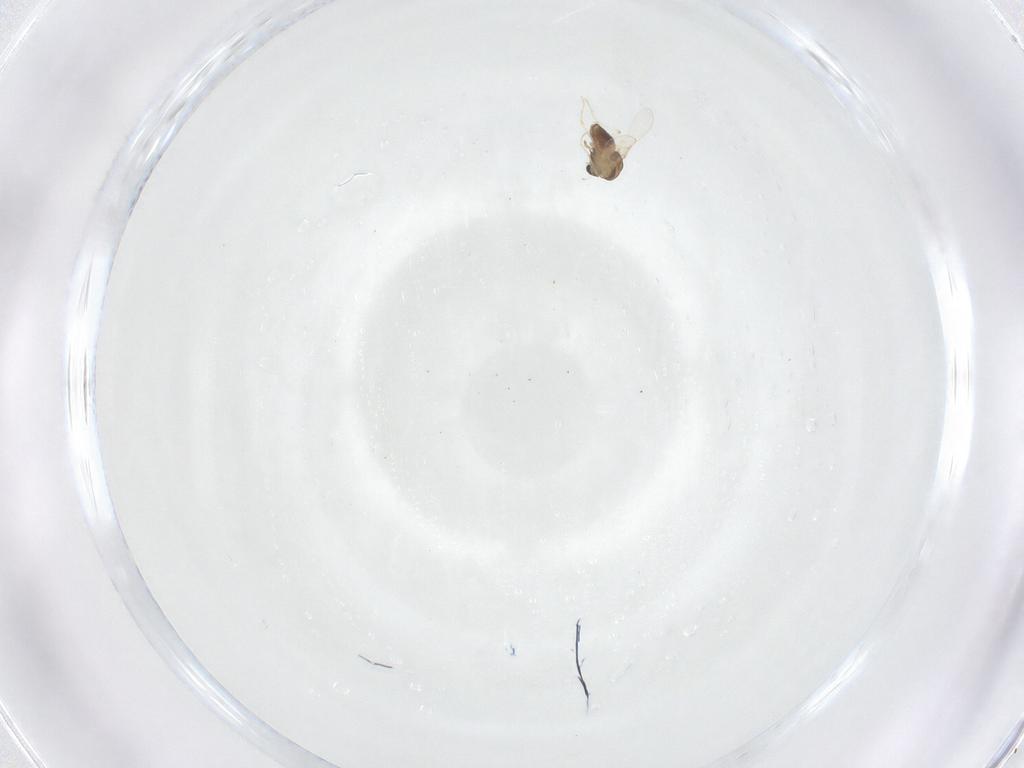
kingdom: Animalia
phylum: Arthropoda
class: Insecta
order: Diptera
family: Chironomidae
